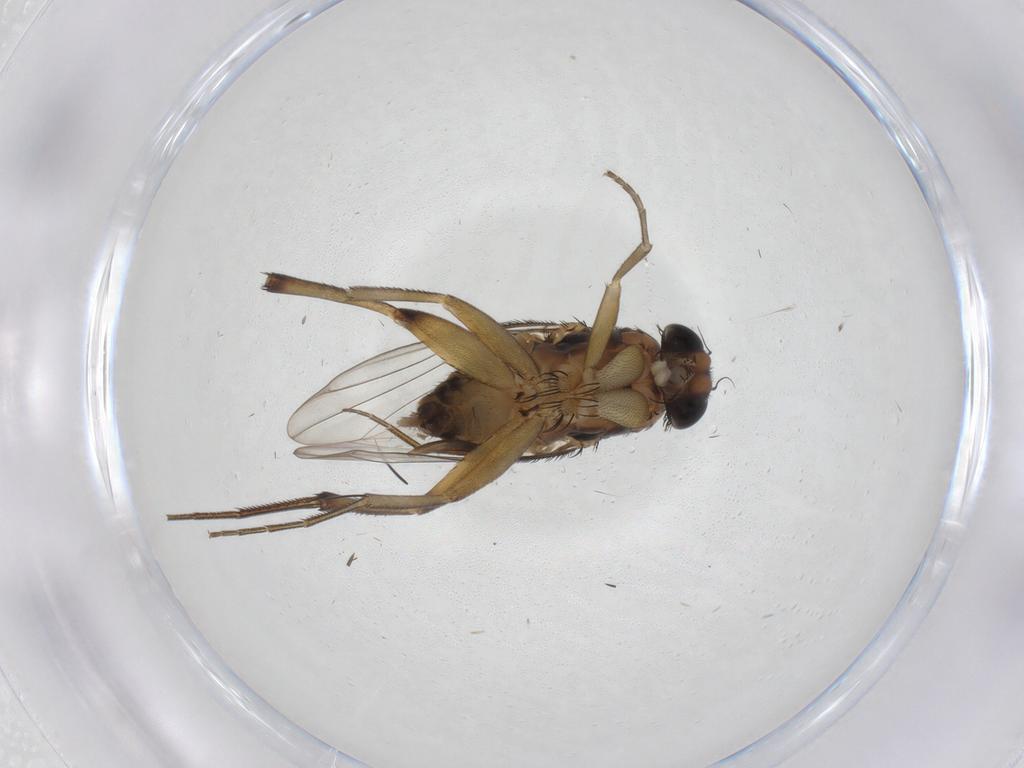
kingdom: Animalia
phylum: Arthropoda
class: Insecta
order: Diptera
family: Phoridae
